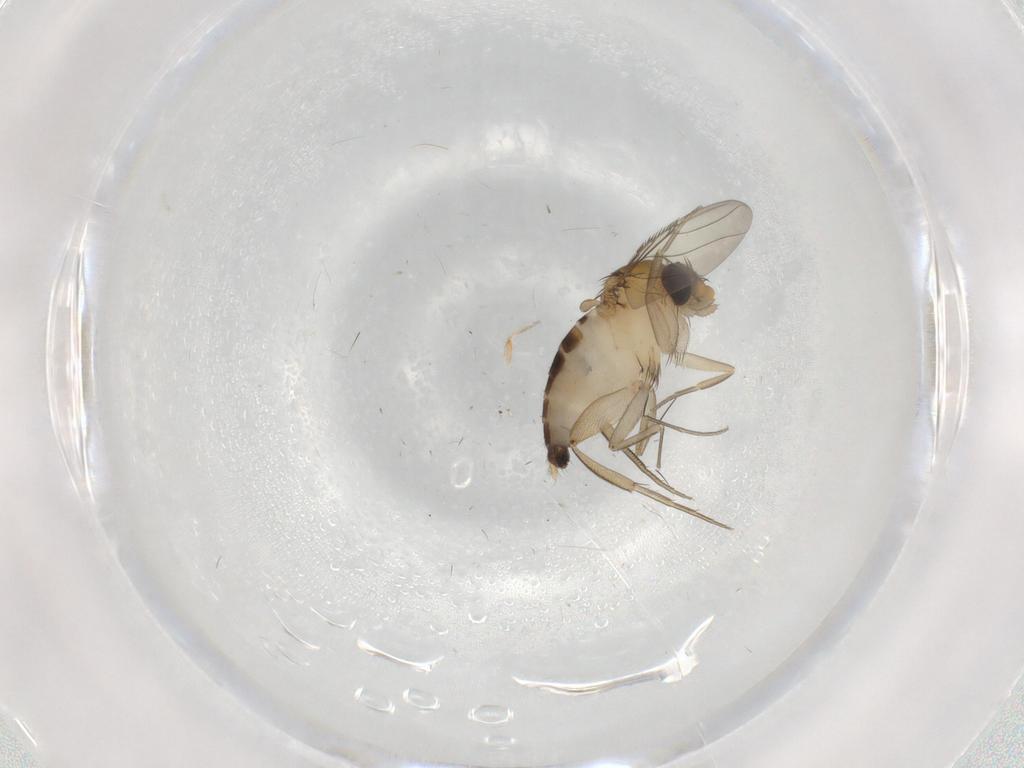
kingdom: Animalia
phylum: Arthropoda
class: Insecta
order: Diptera
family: Phoridae
